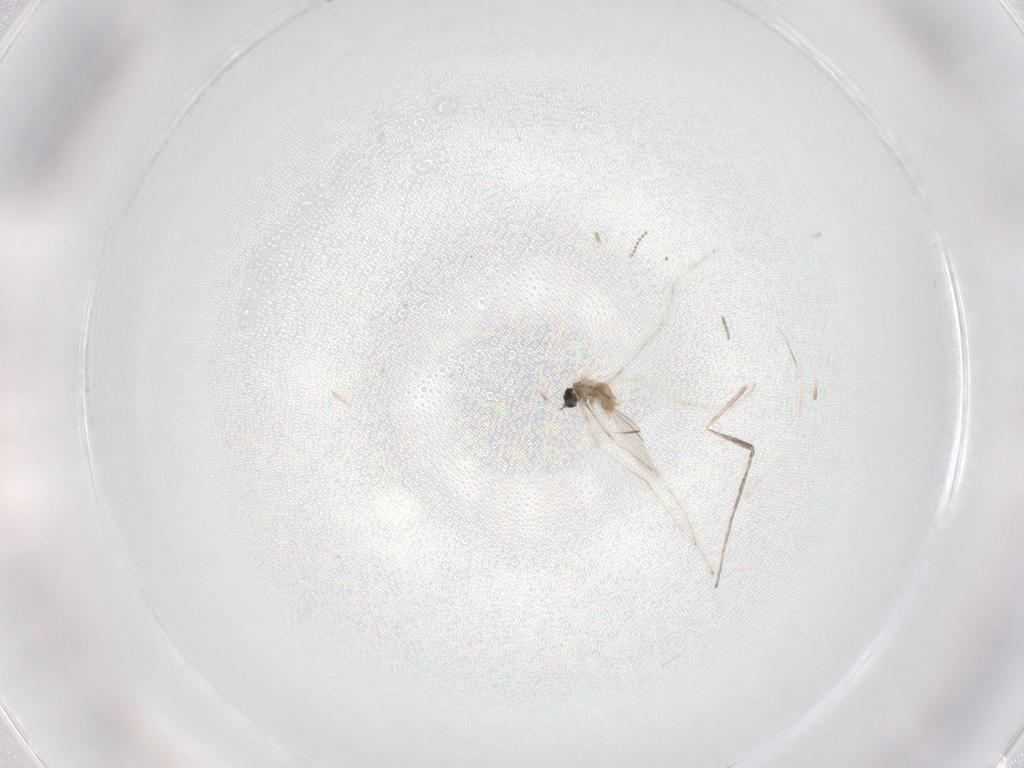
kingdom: Animalia
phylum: Arthropoda
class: Insecta
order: Diptera
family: Cecidomyiidae
